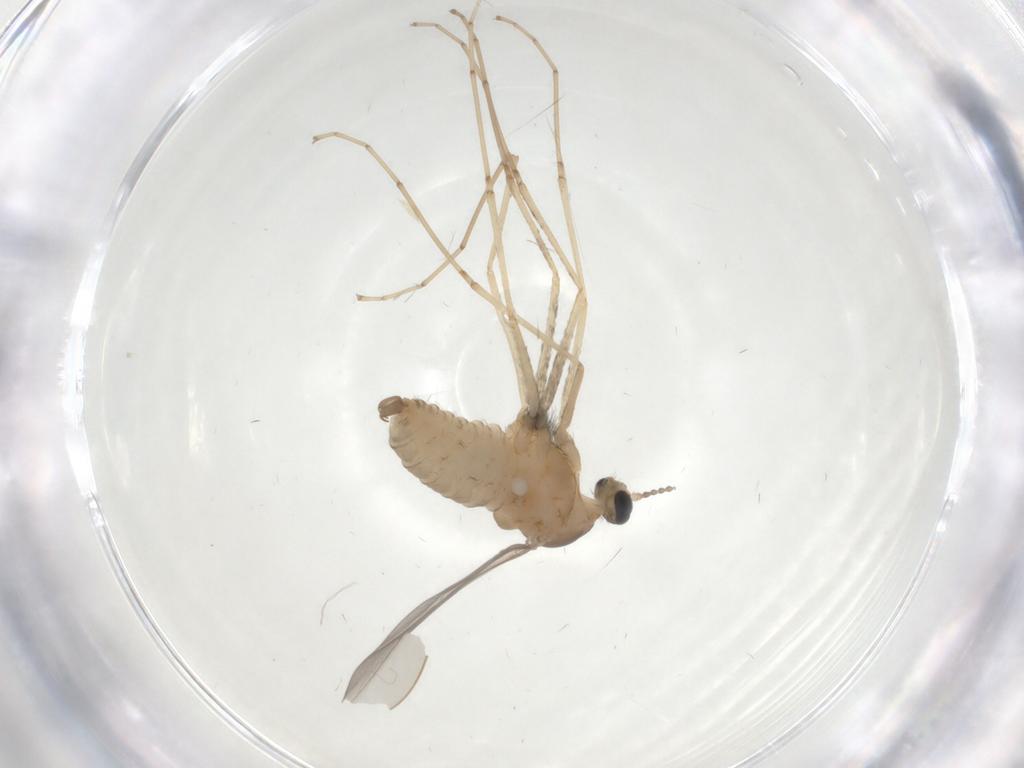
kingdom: Animalia
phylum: Arthropoda
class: Insecta
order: Diptera
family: Cecidomyiidae
